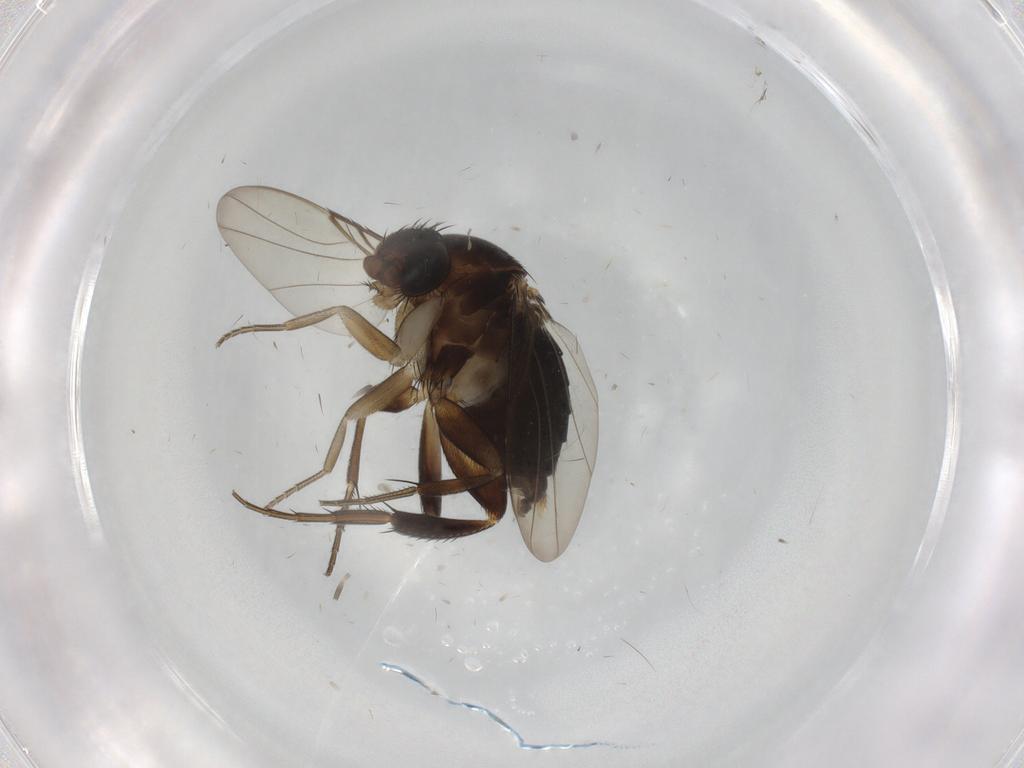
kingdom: Animalia
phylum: Arthropoda
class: Insecta
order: Diptera
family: Phoridae
